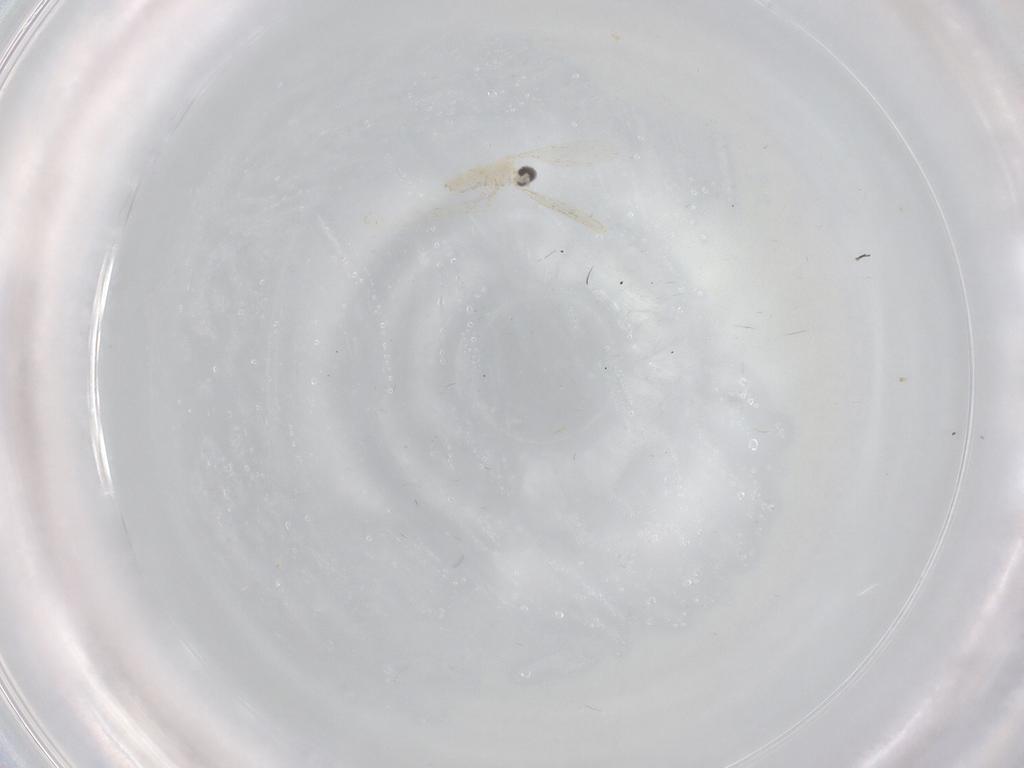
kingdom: Animalia
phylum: Arthropoda
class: Insecta
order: Diptera
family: Cecidomyiidae
